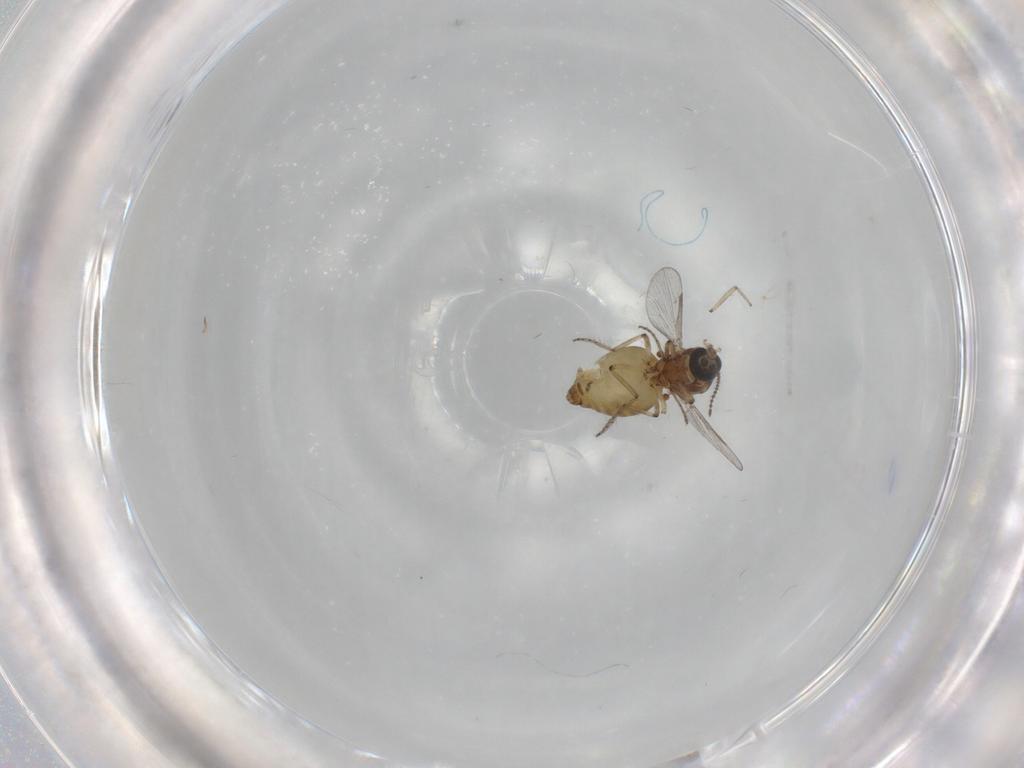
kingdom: Animalia
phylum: Arthropoda
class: Insecta
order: Diptera
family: Ceratopogonidae
